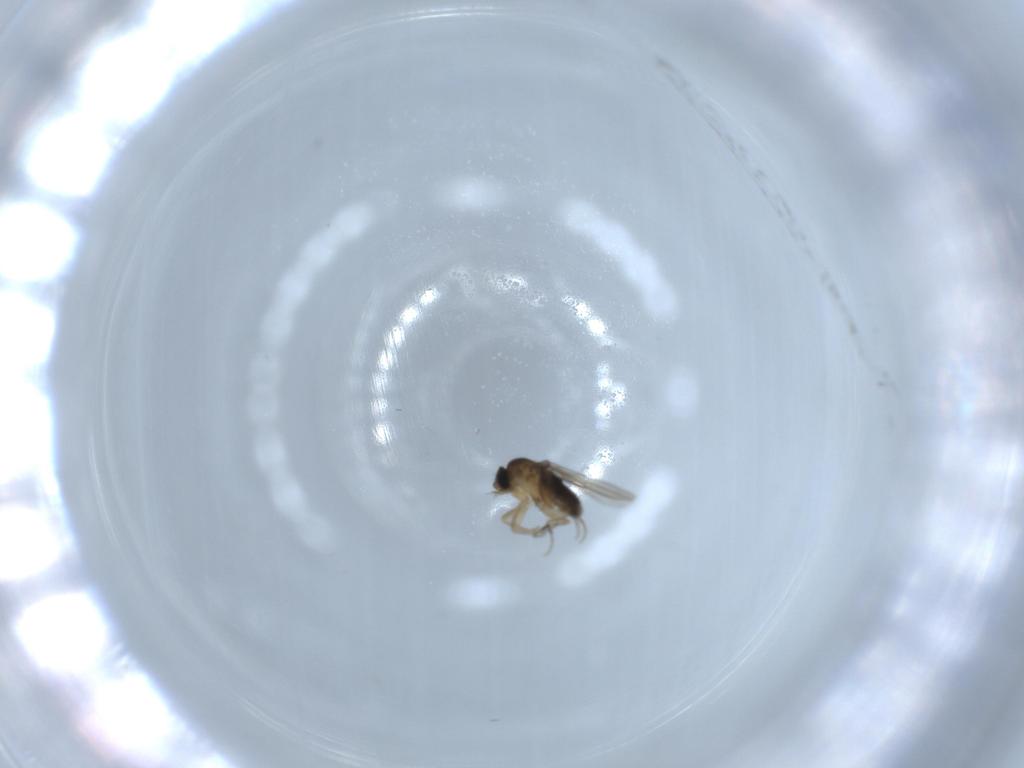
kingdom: Animalia
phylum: Arthropoda
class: Insecta
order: Diptera
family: Phoridae
